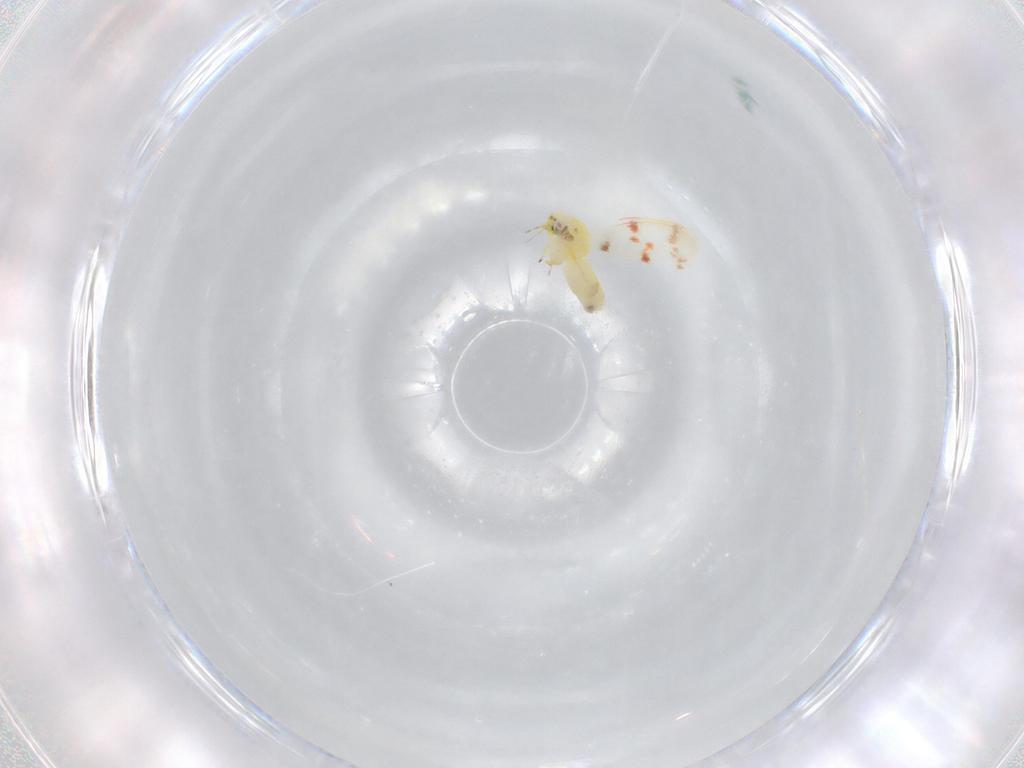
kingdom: Animalia
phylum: Arthropoda
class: Insecta
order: Hemiptera
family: Aleyrodidae
